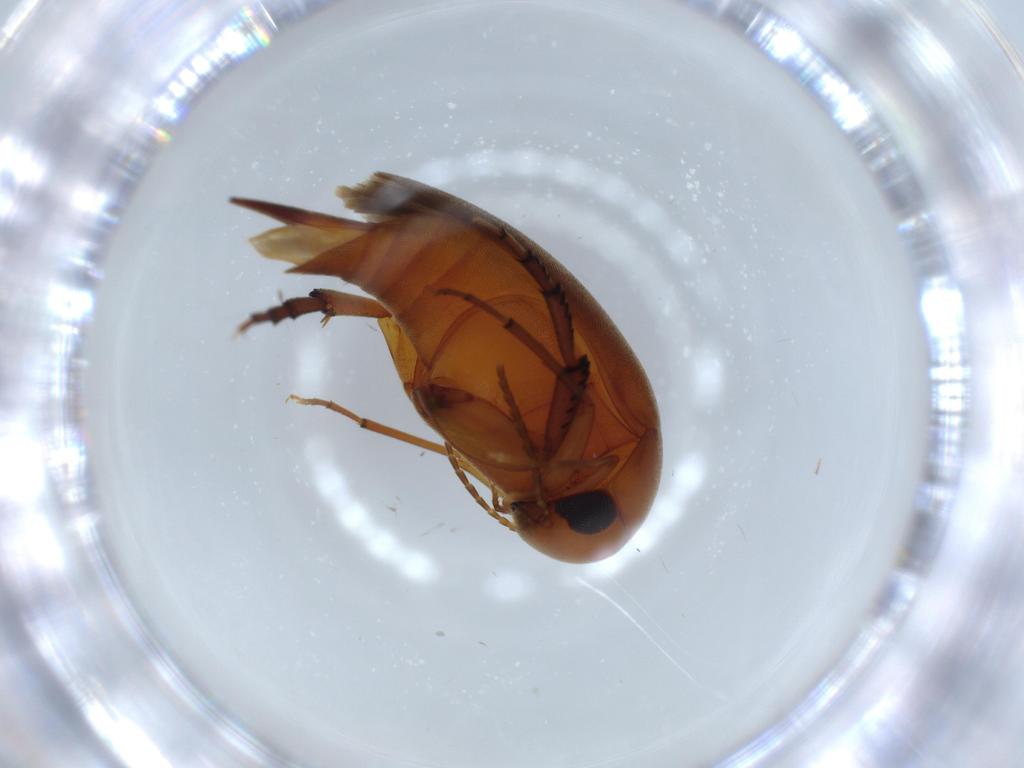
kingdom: Animalia
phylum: Arthropoda
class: Insecta
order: Coleoptera
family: Mordellidae
